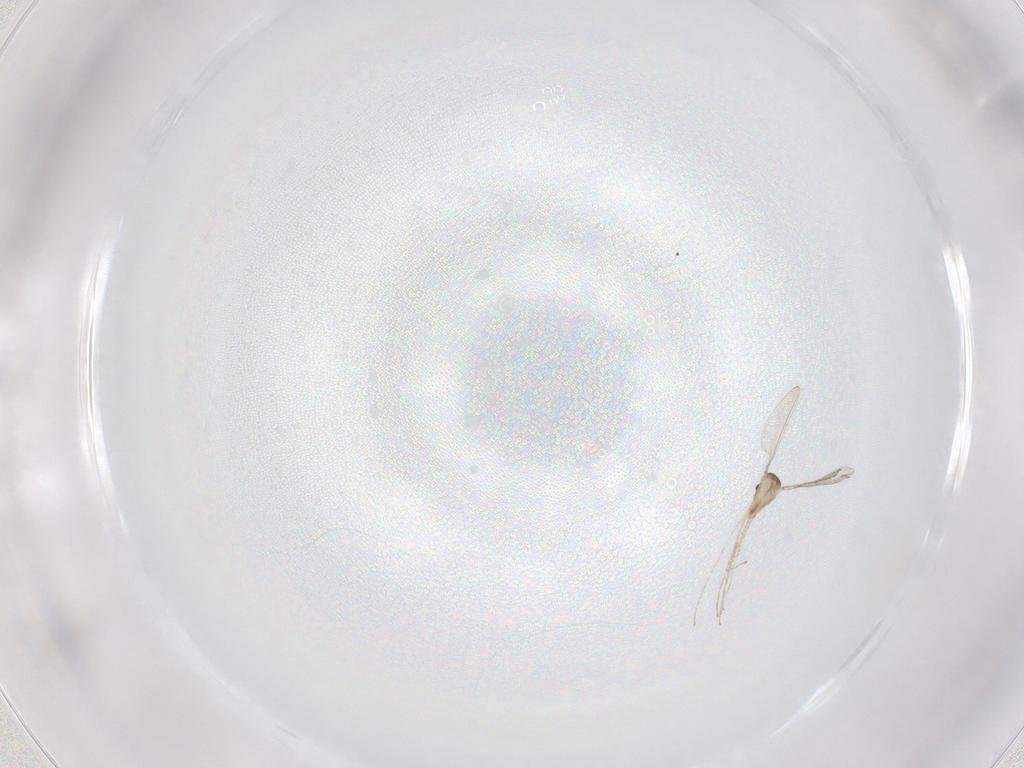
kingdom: Animalia
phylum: Arthropoda
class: Insecta
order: Diptera
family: Cecidomyiidae
